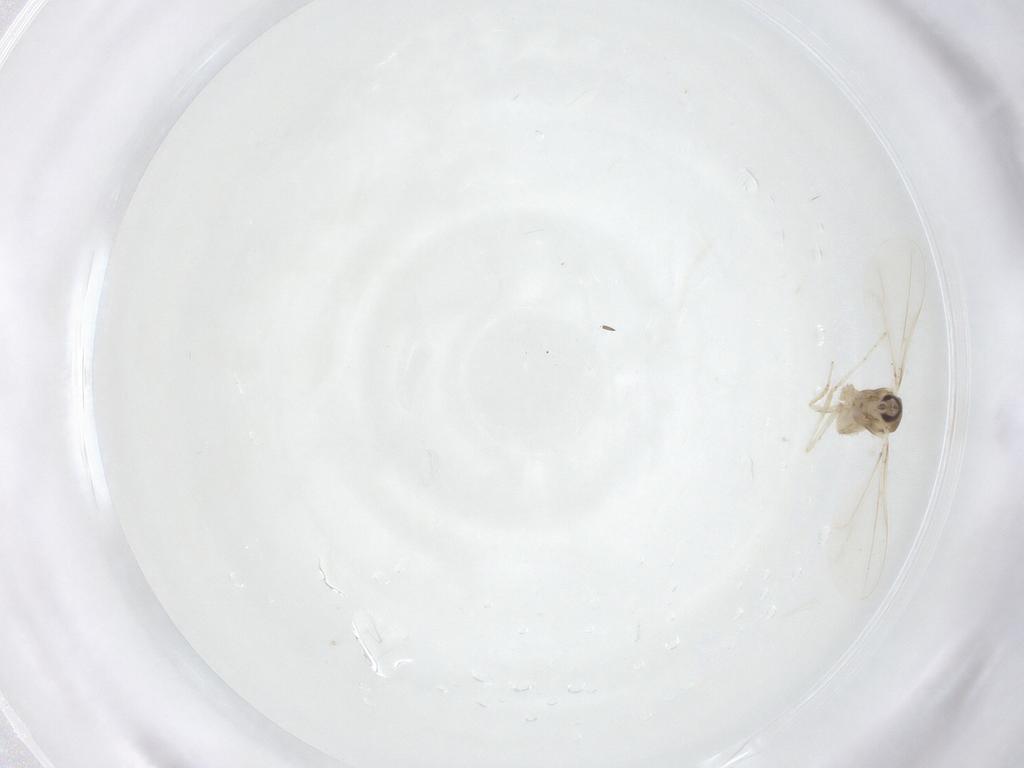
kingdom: Animalia
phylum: Arthropoda
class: Insecta
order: Diptera
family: Cecidomyiidae
